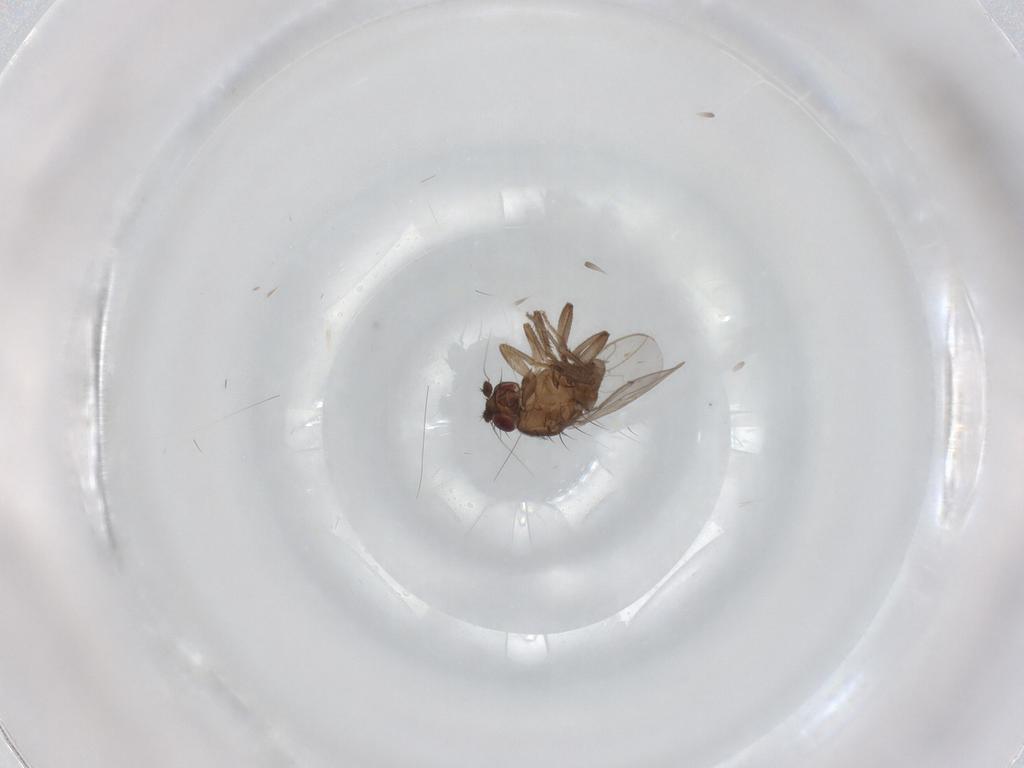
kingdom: Animalia
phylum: Arthropoda
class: Insecta
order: Diptera
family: Sphaeroceridae
